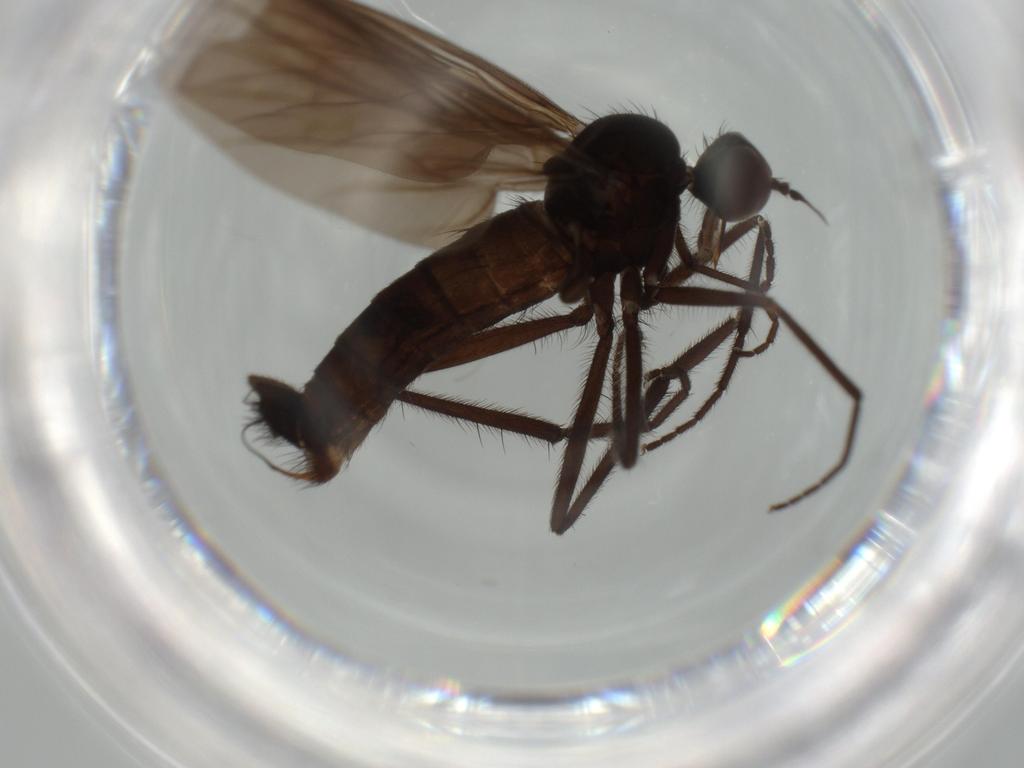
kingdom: Animalia
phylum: Arthropoda
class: Insecta
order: Diptera
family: Empididae
